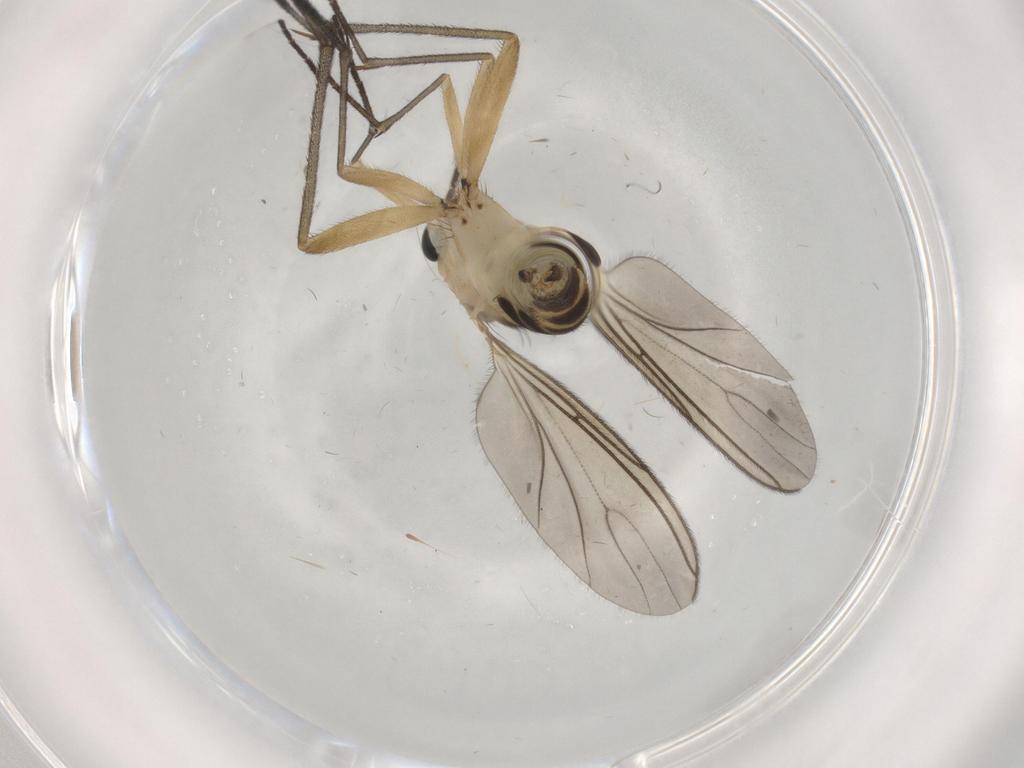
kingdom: Animalia
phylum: Arthropoda
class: Insecta
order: Diptera
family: Sciaridae
